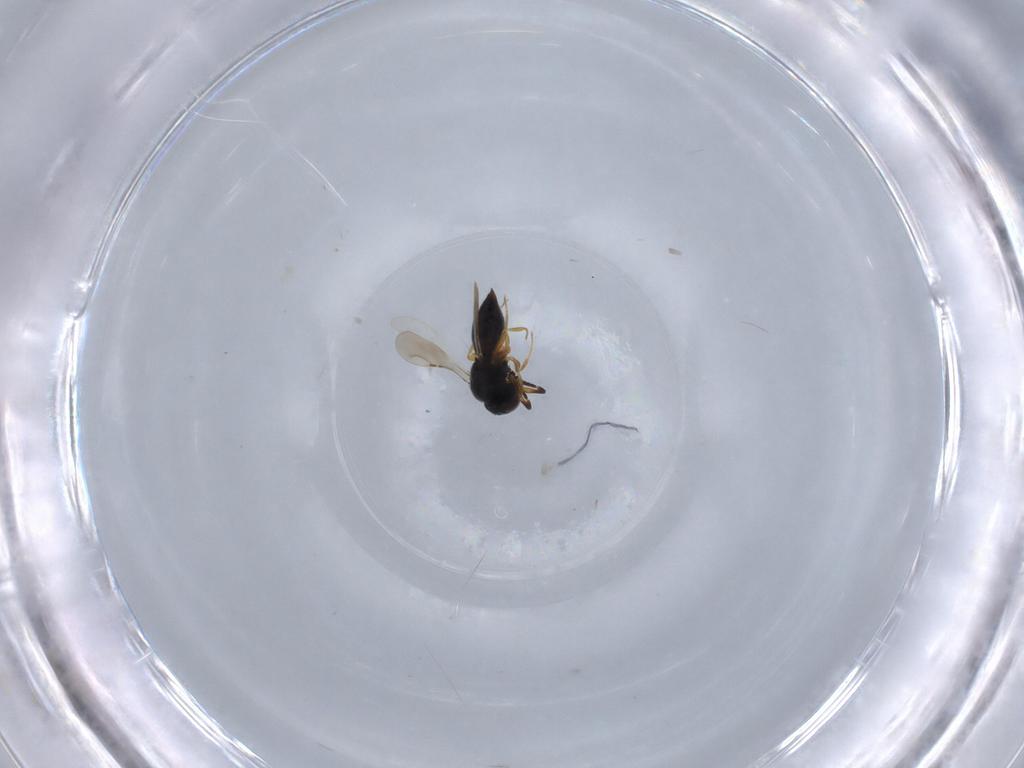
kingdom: Animalia
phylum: Arthropoda
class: Insecta
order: Hymenoptera
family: Ceraphronidae
